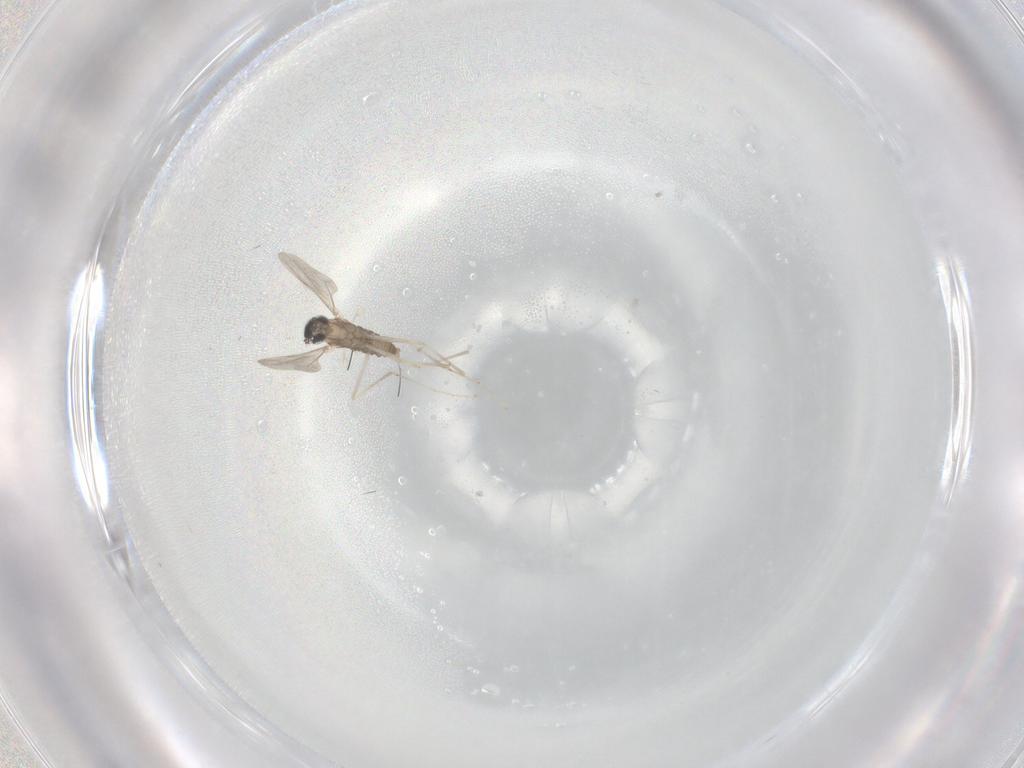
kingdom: Animalia
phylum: Arthropoda
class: Insecta
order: Diptera
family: Cecidomyiidae
